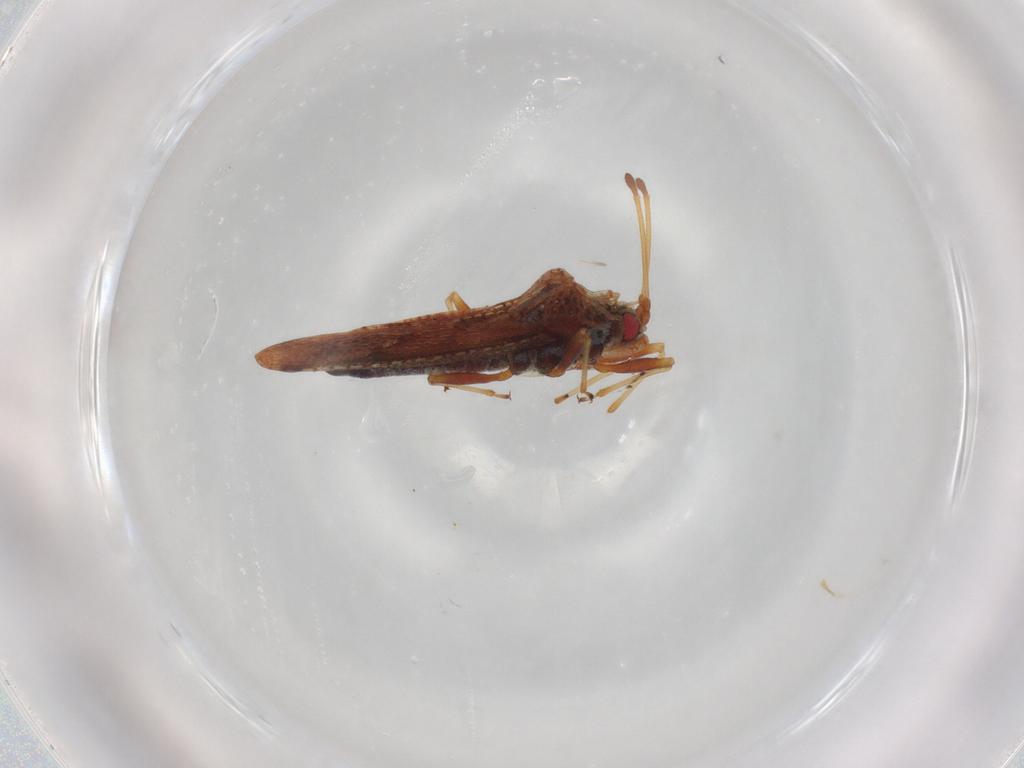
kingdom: Animalia
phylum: Arthropoda
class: Insecta
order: Hemiptera
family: Tingidae
